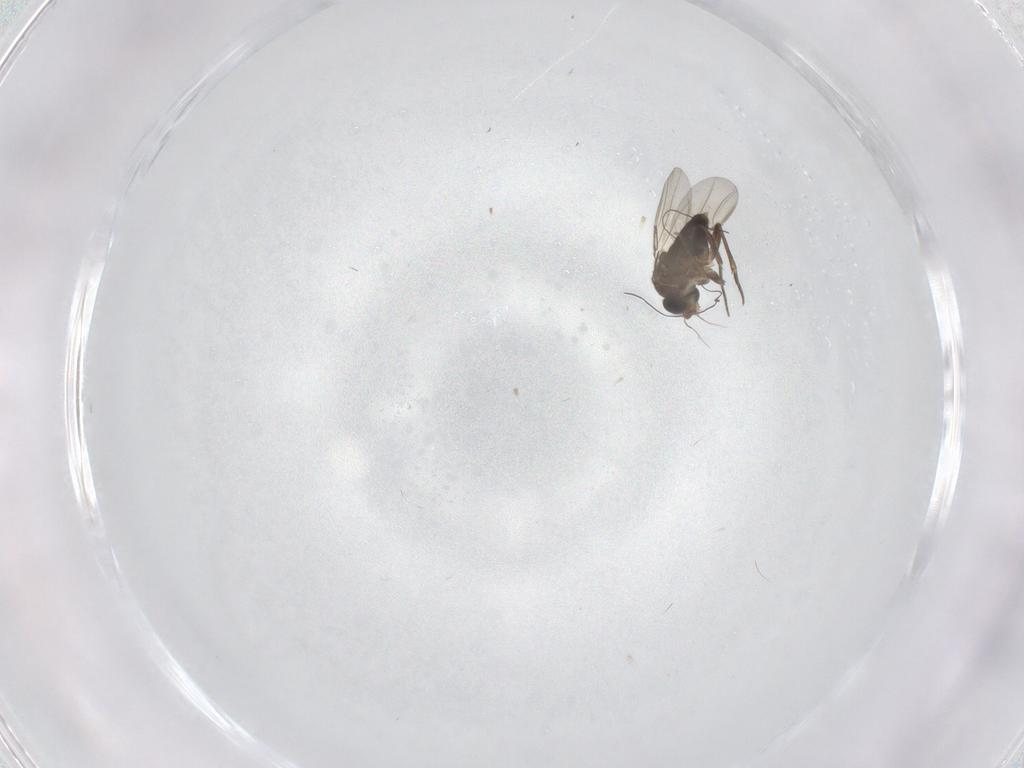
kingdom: Animalia
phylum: Arthropoda
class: Insecta
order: Diptera
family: Phoridae
